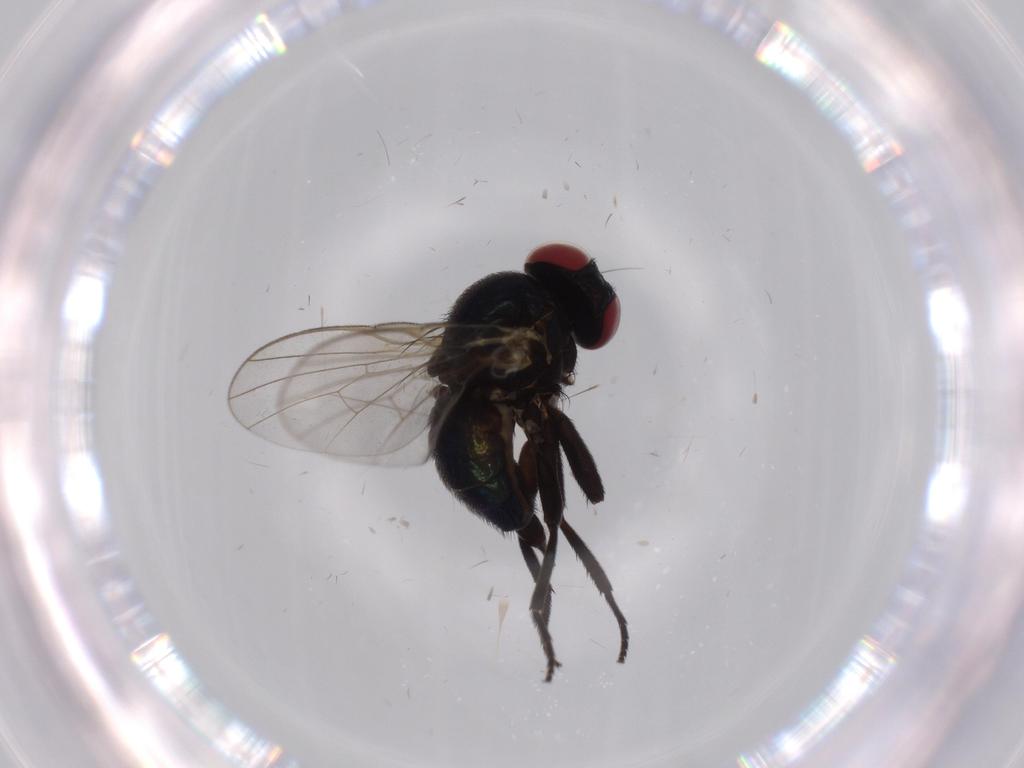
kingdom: Animalia
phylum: Arthropoda
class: Insecta
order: Diptera
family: Agromyzidae
